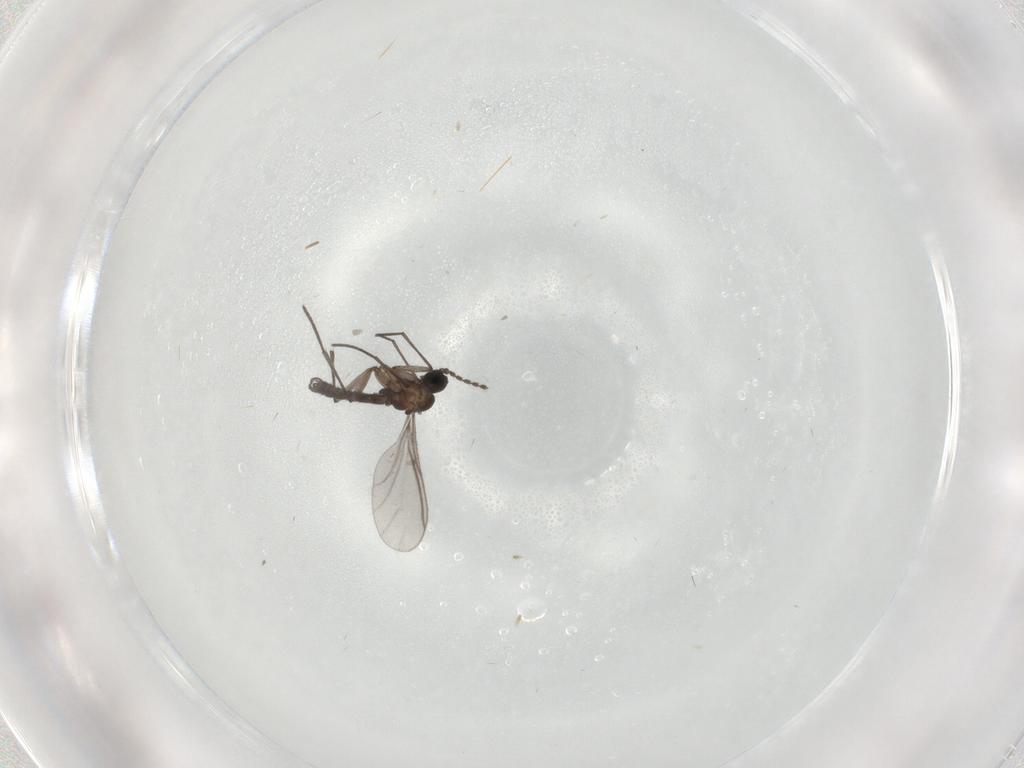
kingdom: Animalia
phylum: Arthropoda
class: Insecta
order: Diptera
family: Sciaridae
